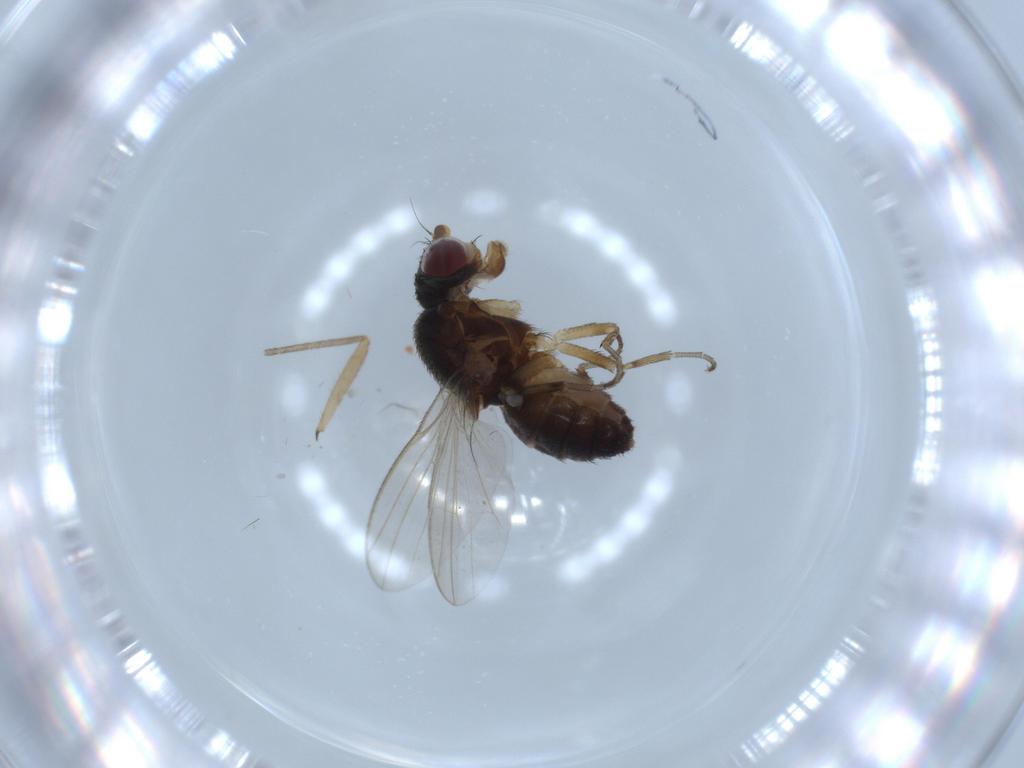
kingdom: Animalia
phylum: Arthropoda
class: Insecta
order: Diptera
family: Heleomyzidae
